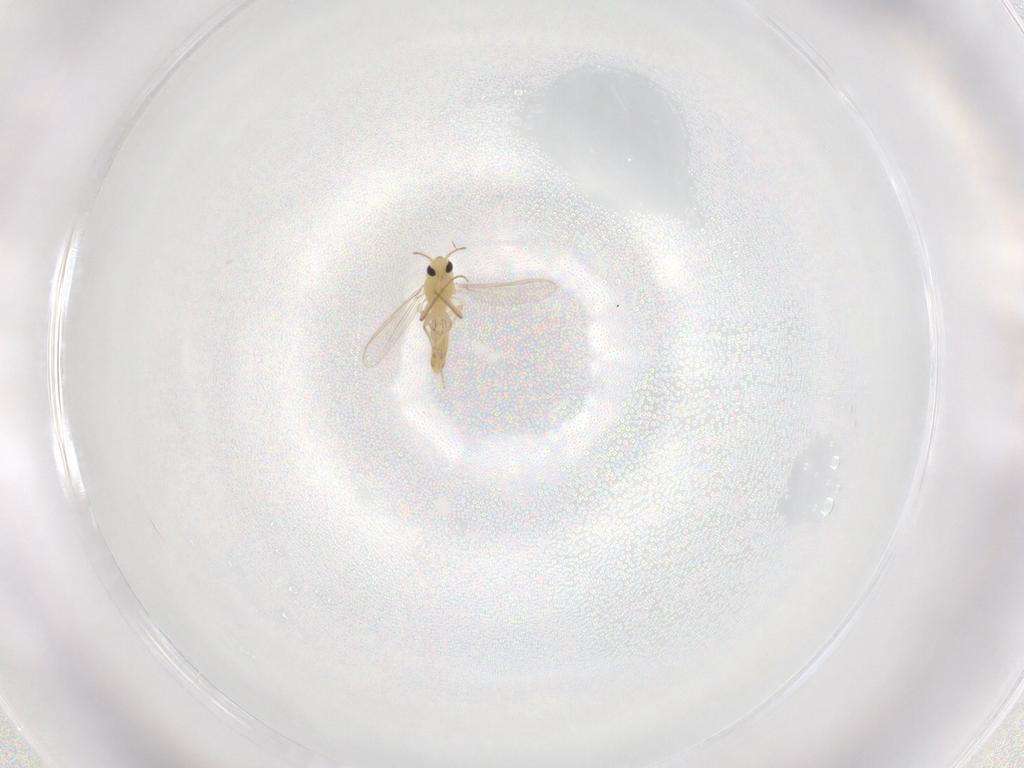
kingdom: Animalia
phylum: Arthropoda
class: Insecta
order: Diptera
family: Chironomidae
